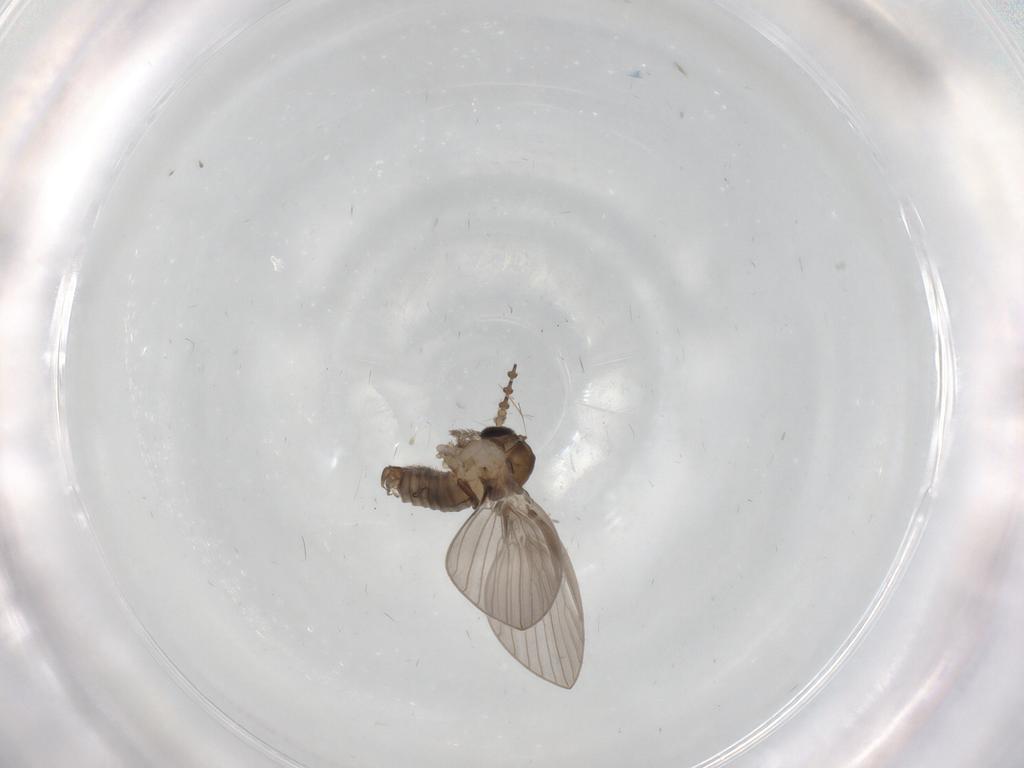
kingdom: Animalia
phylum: Arthropoda
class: Insecta
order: Diptera
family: Psychodidae
